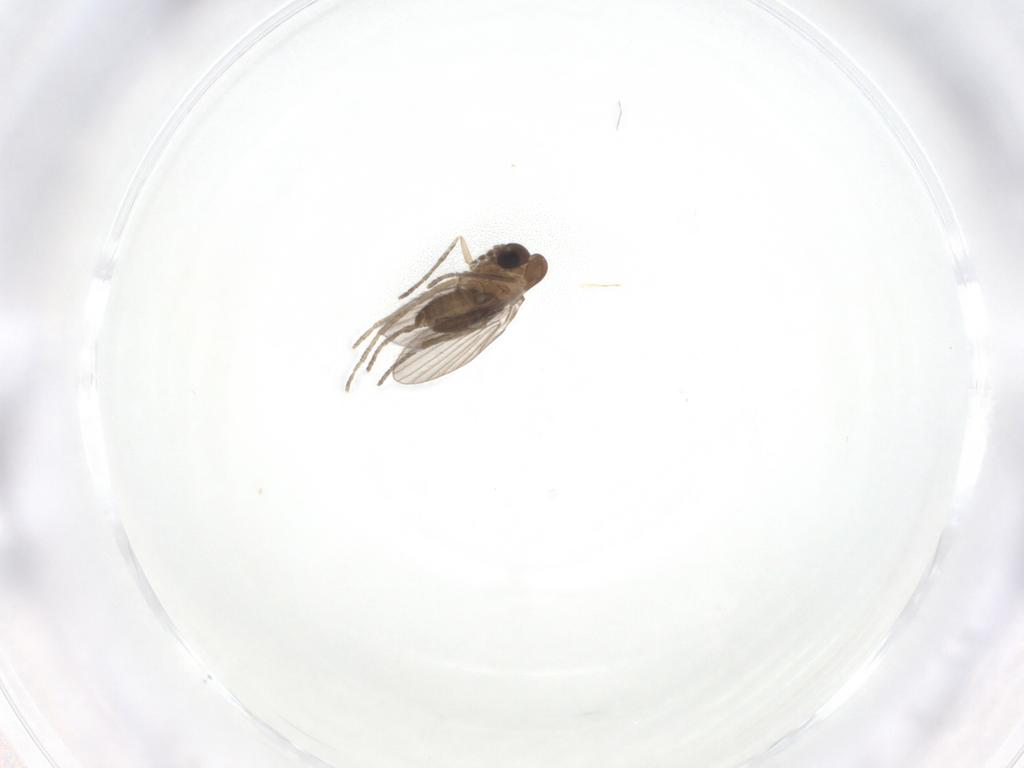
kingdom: Animalia
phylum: Arthropoda
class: Insecta
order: Diptera
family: Psychodidae
